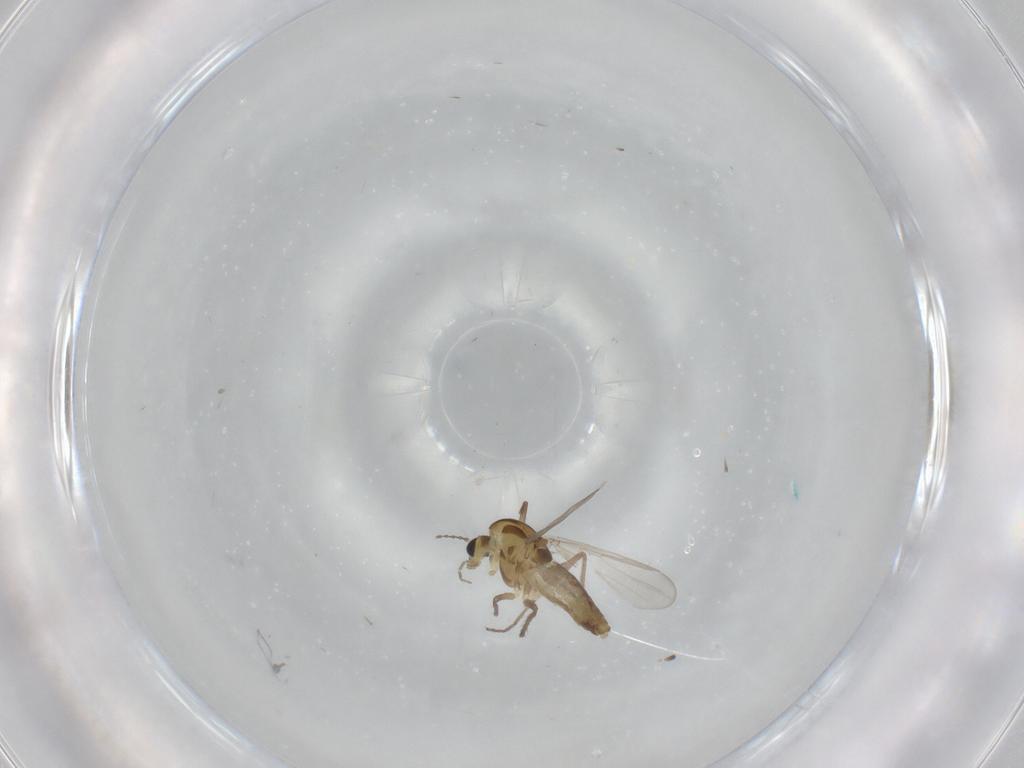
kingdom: Animalia
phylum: Arthropoda
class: Insecta
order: Diptera
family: Chironomidae
